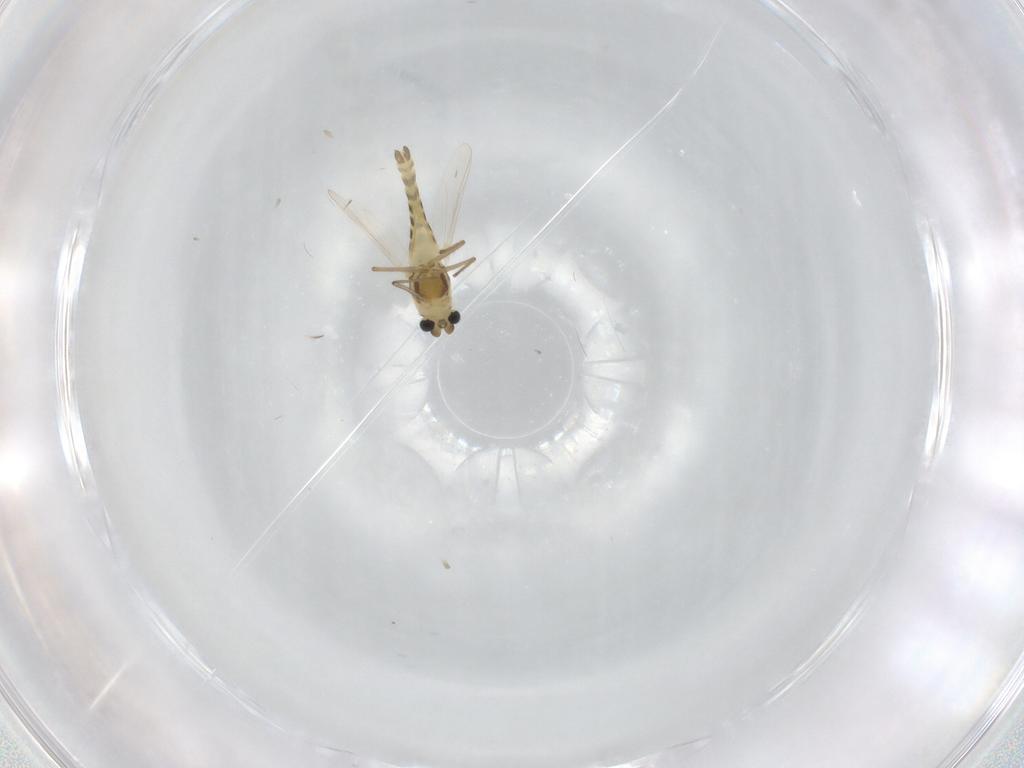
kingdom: Animalia
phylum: Arthropoda
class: Insecta
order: Diptera
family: Chironomidae
